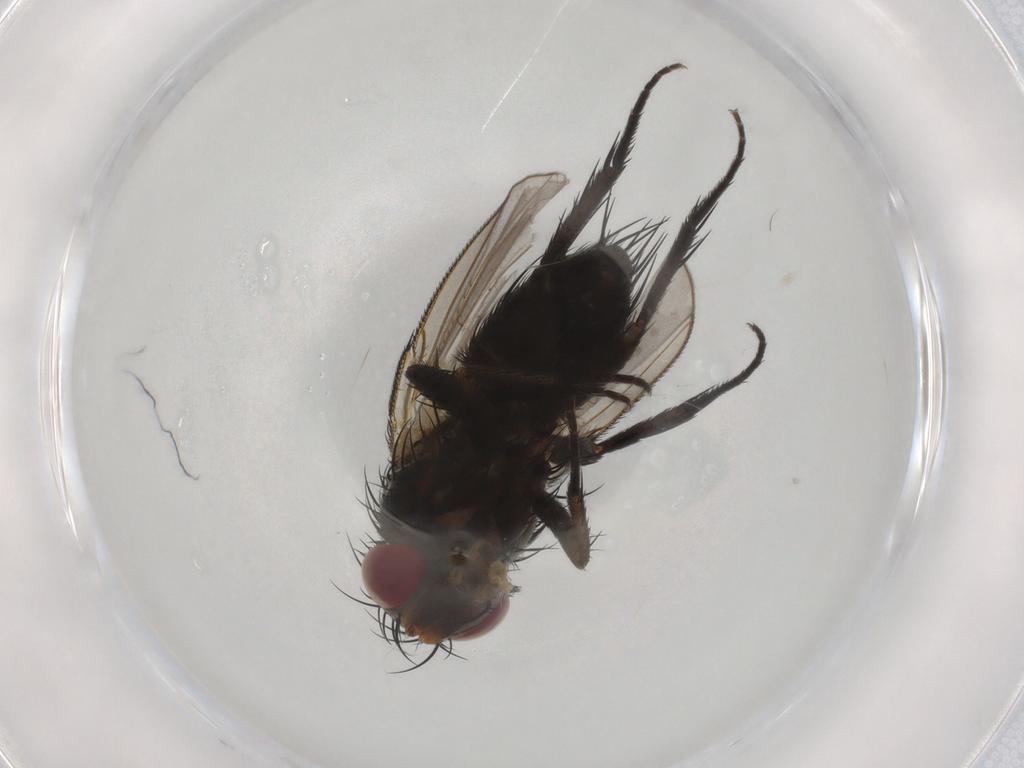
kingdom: Animalia
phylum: Arthropoda
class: Insecta
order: Diptera
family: Tachinidae
